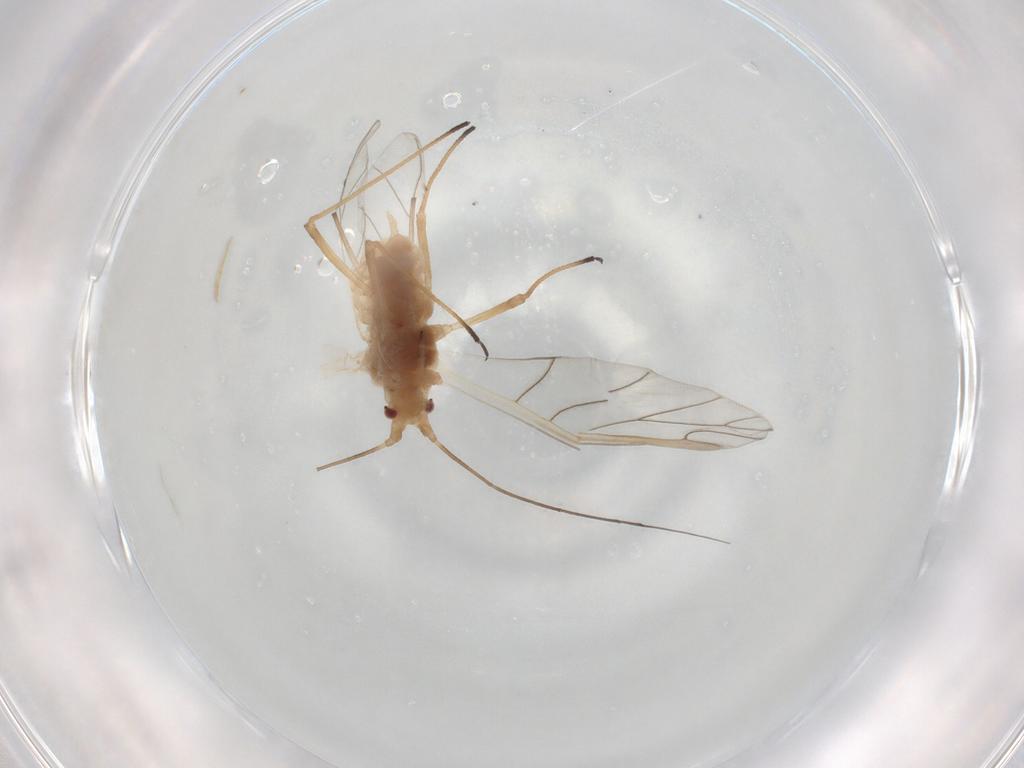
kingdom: Animalia
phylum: Arthropoda
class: Insecta
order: Hemiptera
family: Aphididae
